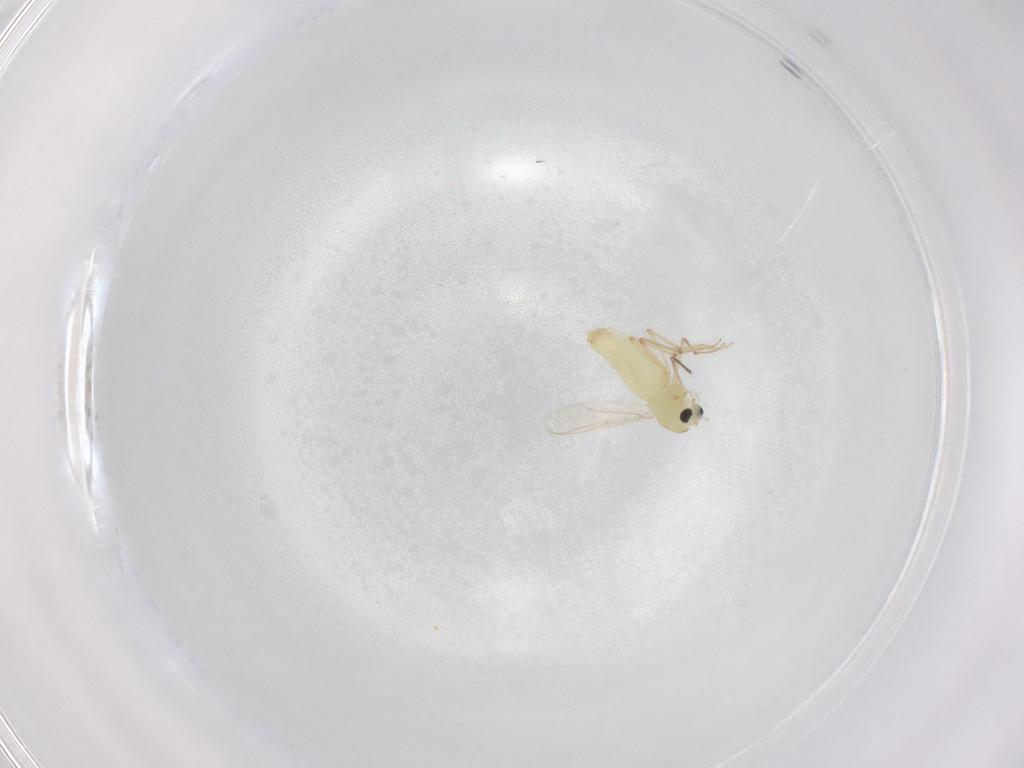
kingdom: Animalia
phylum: Arthropoda
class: Insecta
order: Diptera
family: Chironomidae
